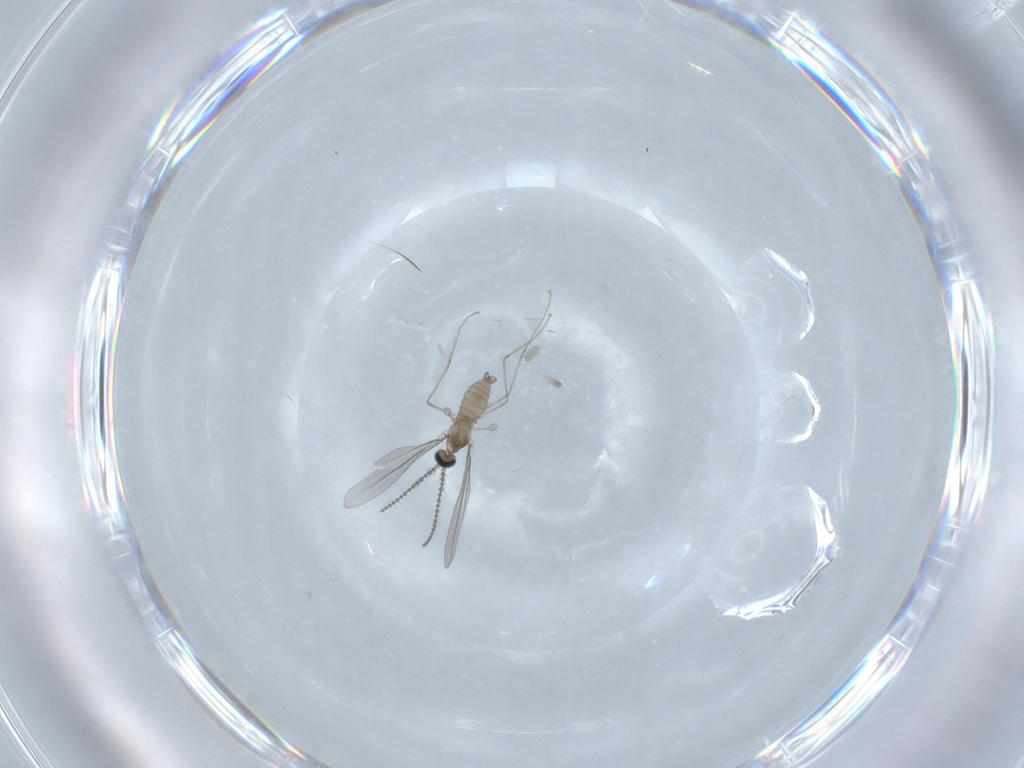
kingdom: Animalia
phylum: Arthropoda
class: Insecta
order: Diptera
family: Cecidomyiidae
